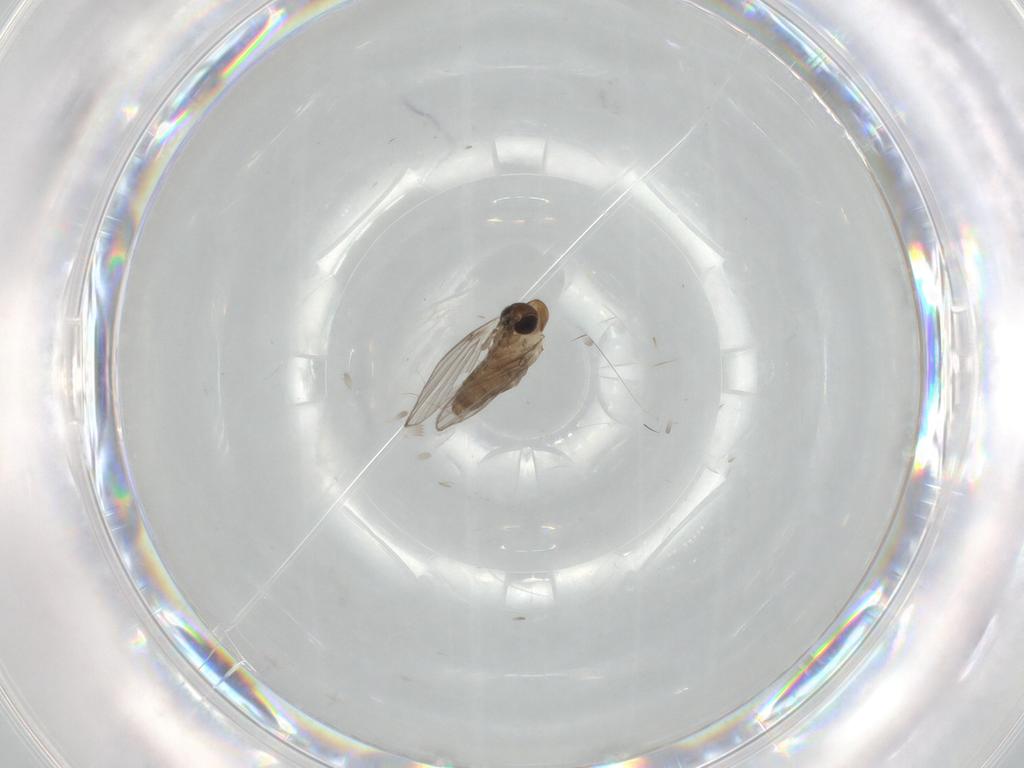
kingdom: Animalia
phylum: Arthropoda
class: Insecta
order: Diptera
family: Psychodidae
